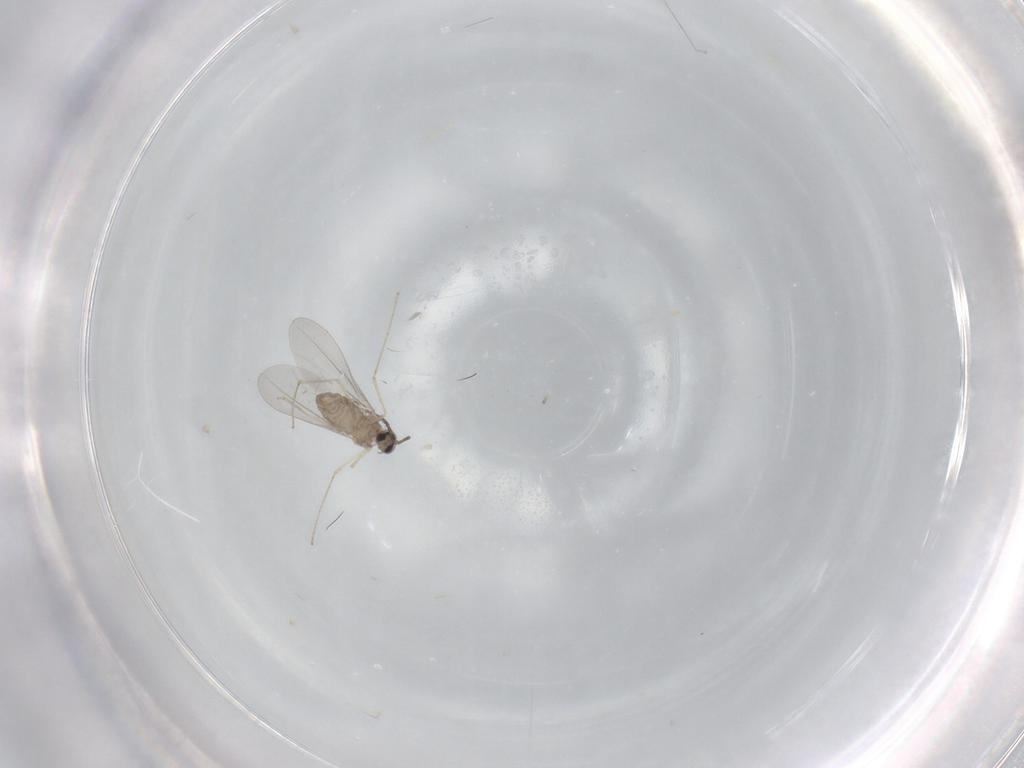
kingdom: Animalia
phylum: Arthropoda
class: Insecta
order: Diptera
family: Cecidomyiidae
